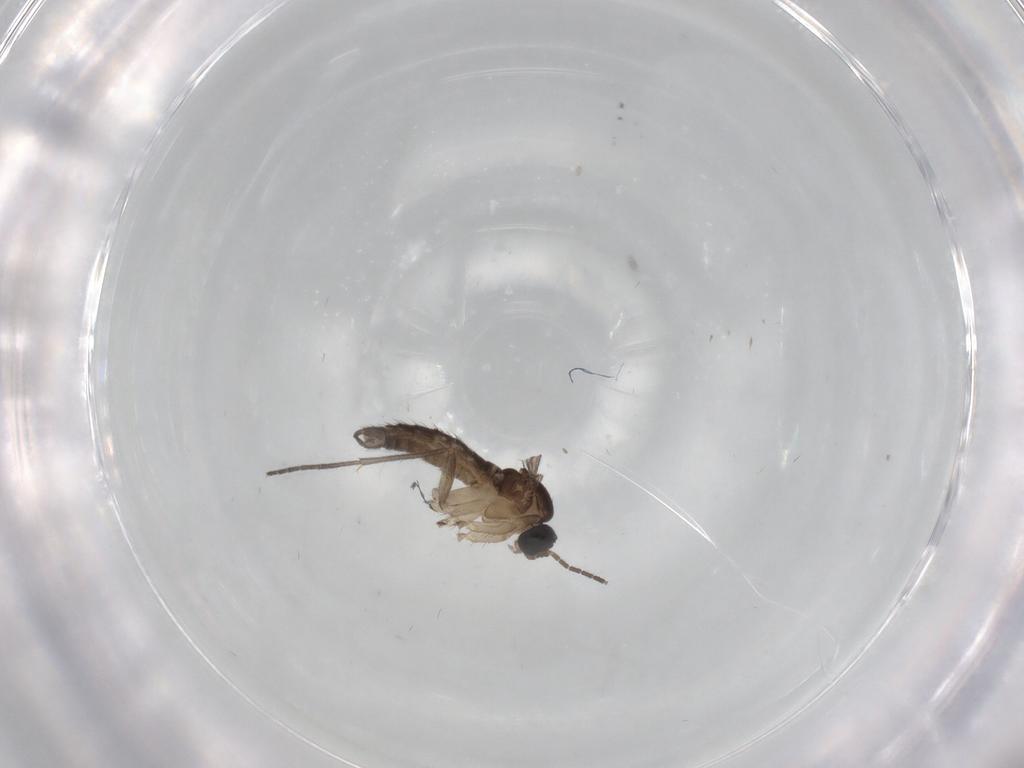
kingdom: Animalia
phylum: Arthropoda
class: Insecta
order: Diptera
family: Sciaridae
